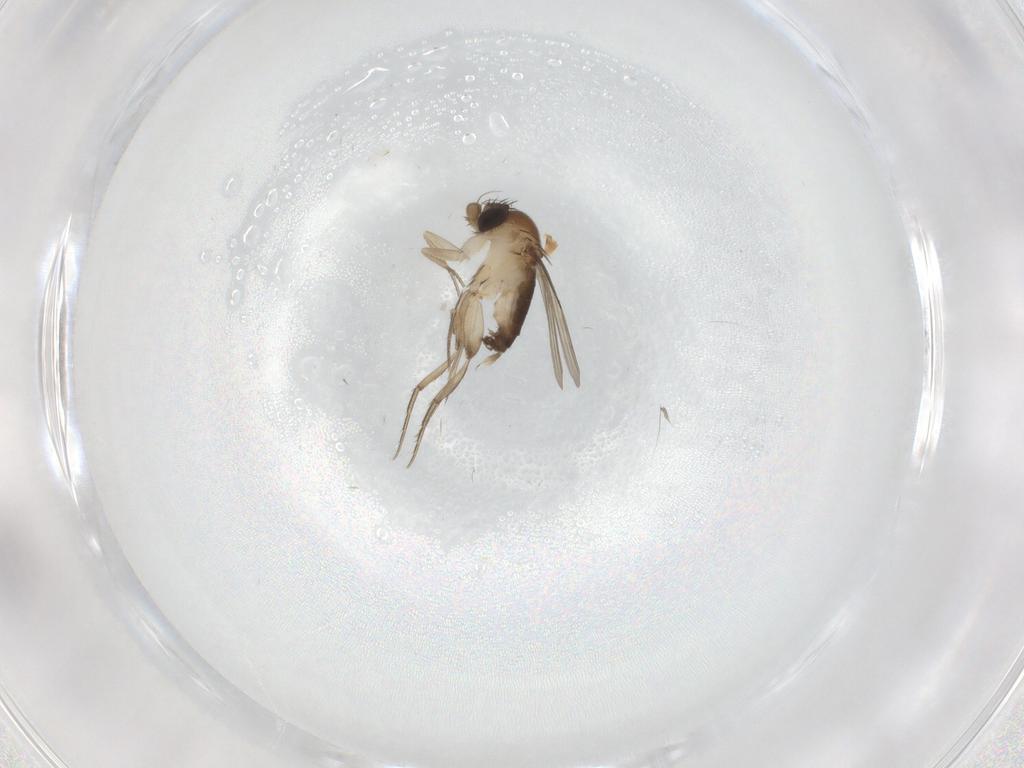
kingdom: Animalia
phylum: Arthropoda
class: Insecta
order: Diptera
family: Phoridae
